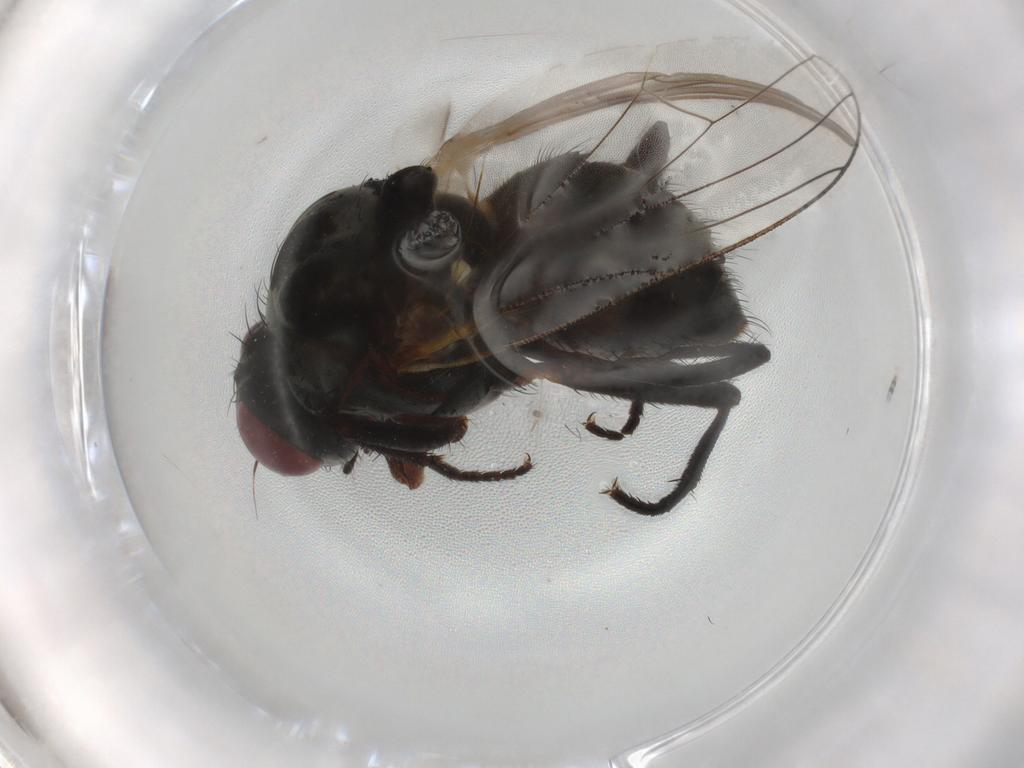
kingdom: Animalia
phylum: Arthropoda
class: Insecta
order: Diptera
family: Anthomyiidae
